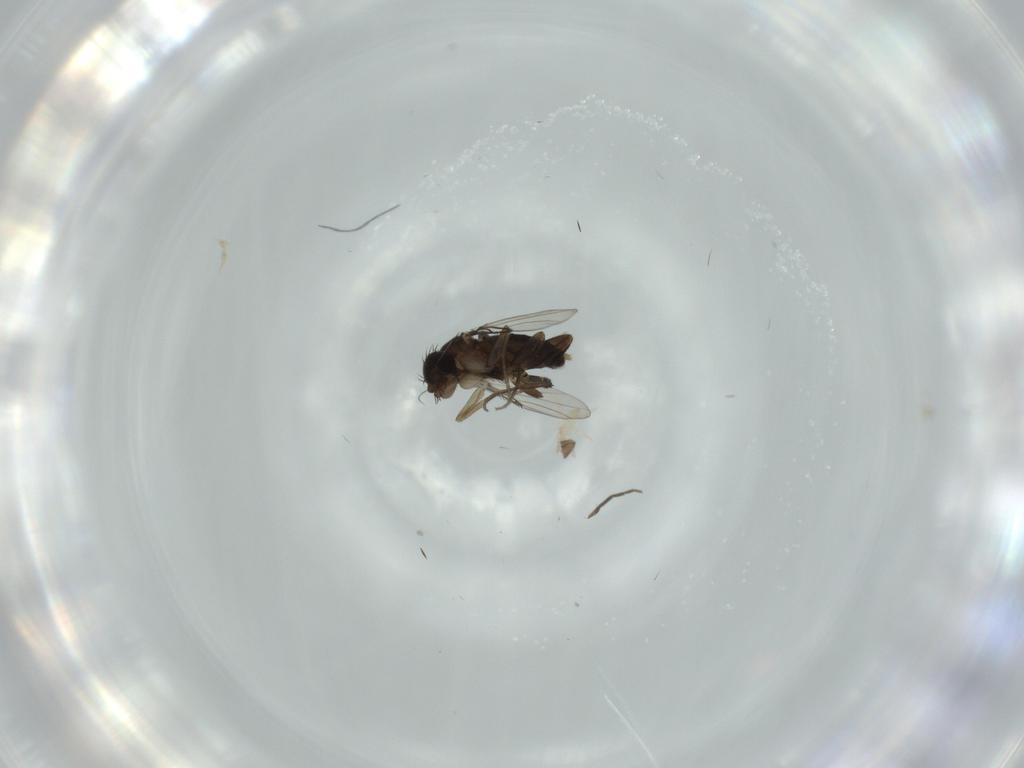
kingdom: Animalia
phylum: Arthropoda
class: Insecta
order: Diptera
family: Phoridae
